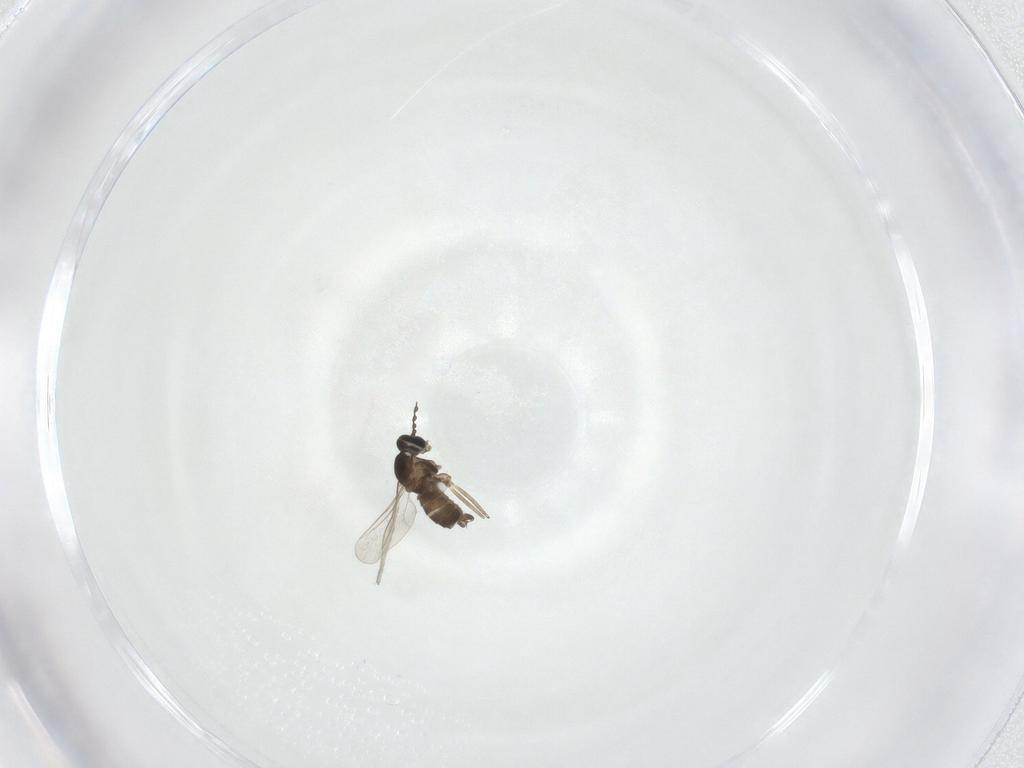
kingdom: Animalia
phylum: Arthropoda
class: Insecta
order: Diptera
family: Cecidomyiidae
